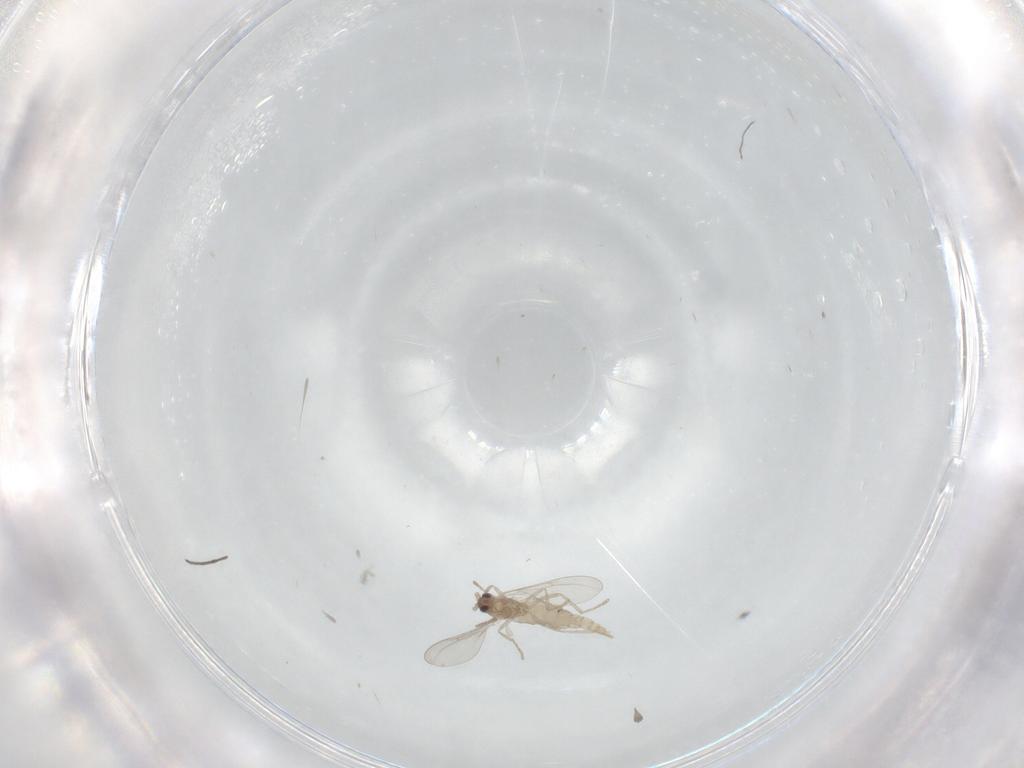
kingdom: Animalia
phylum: Arthropoda
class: Insecta
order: Diptera
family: Cecidomyiidae
